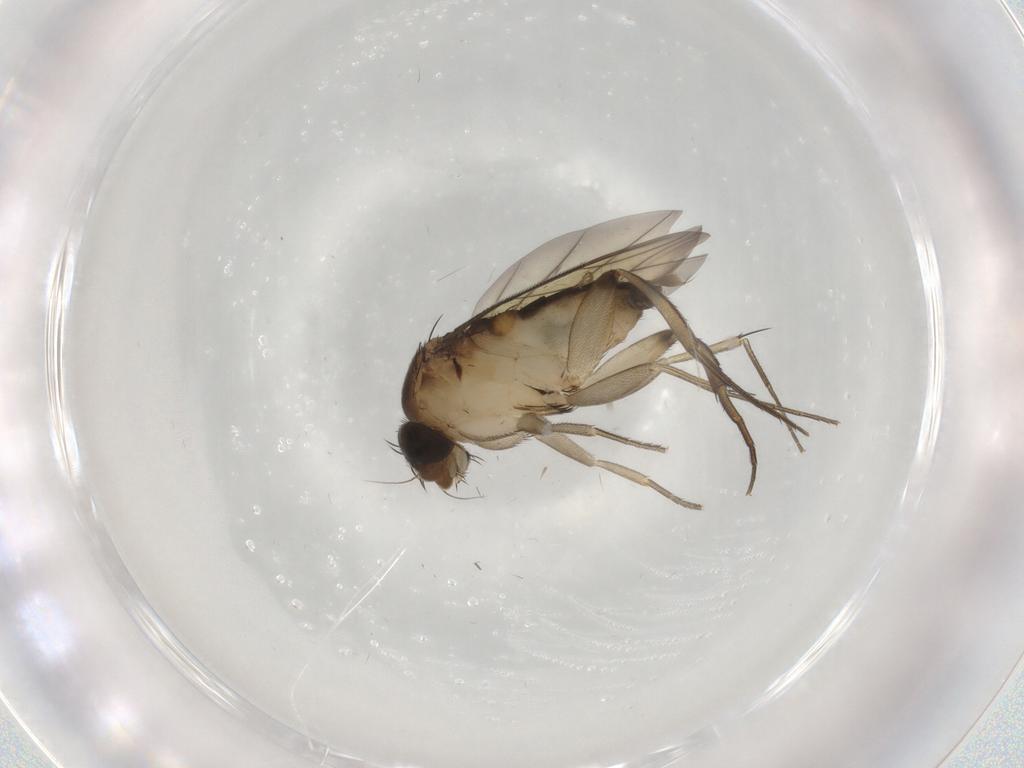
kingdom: Animalia
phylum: Arthropoda
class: Insecta
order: Diptera
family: Phoridae
